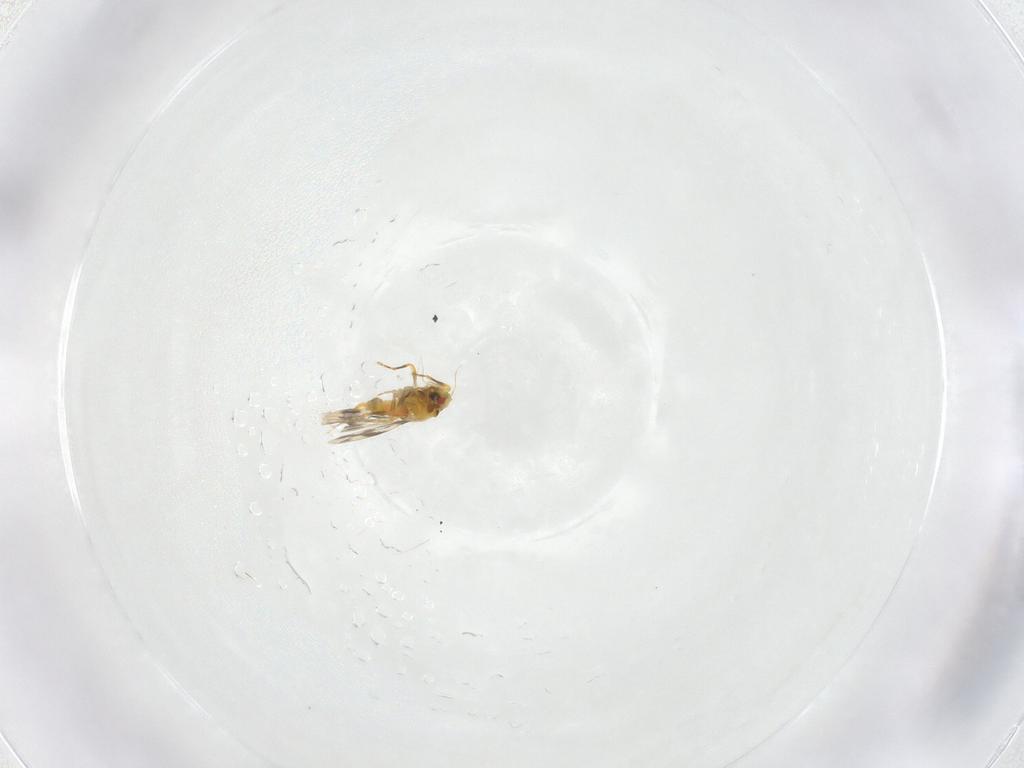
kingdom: Animalia
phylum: Arthropoda
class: Insecta
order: Hemiptera
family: Aleyrodidae
